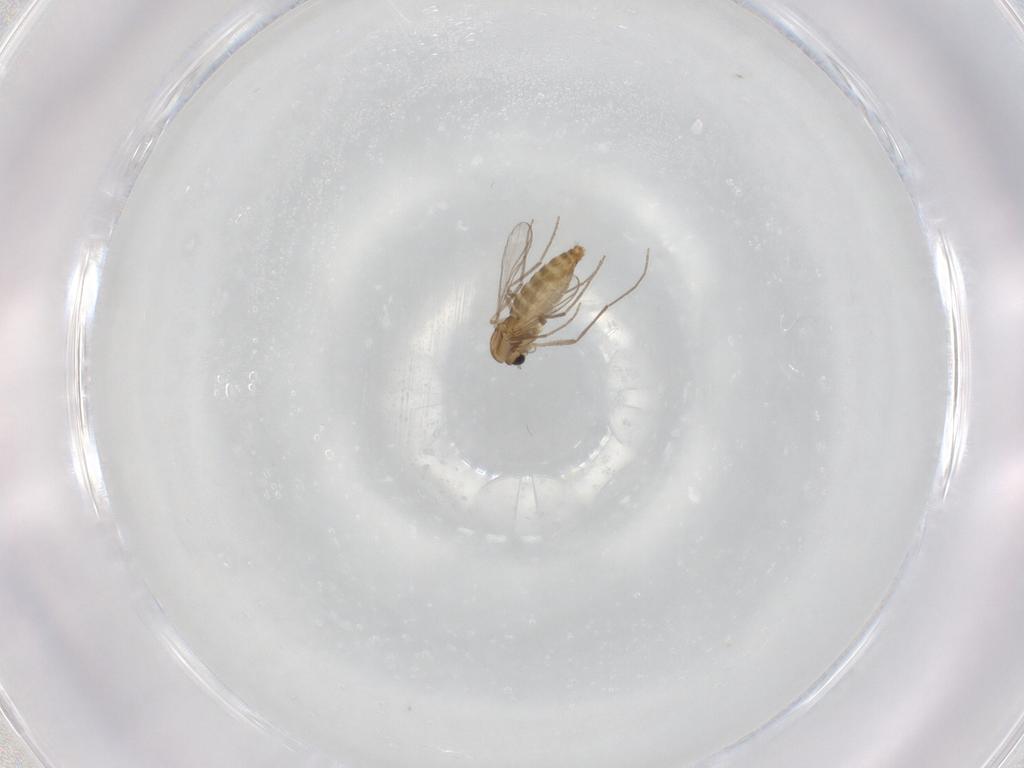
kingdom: Animalia
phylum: Arthropoda
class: Insecta
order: Diptera
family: Chironomidae
